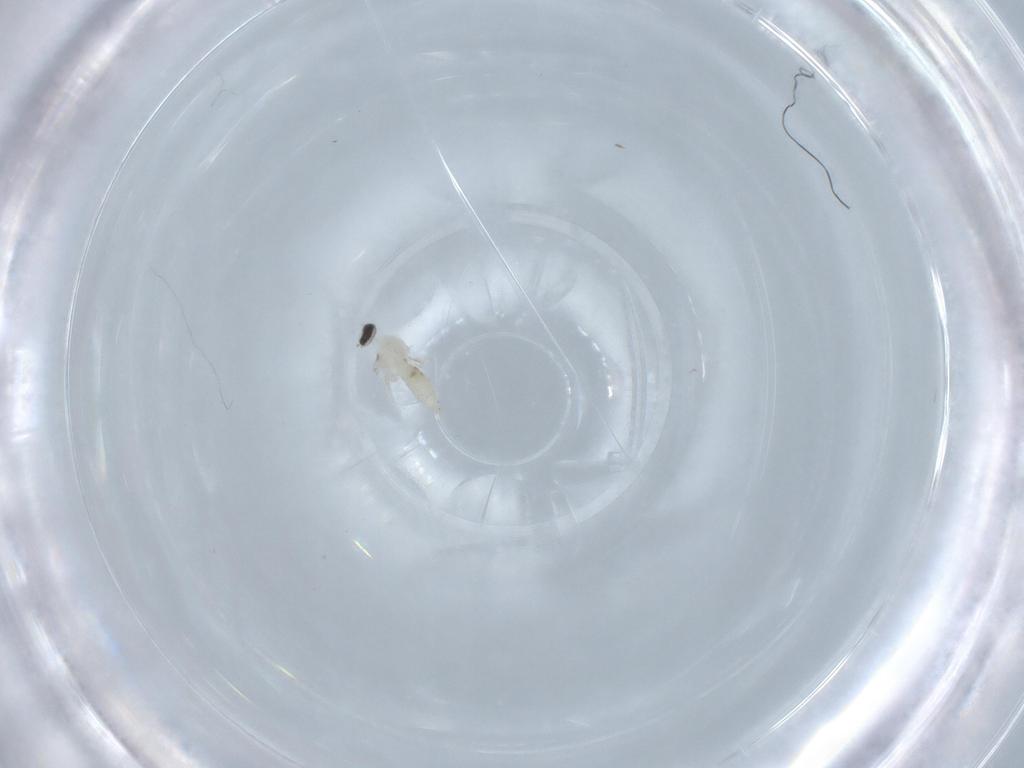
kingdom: Animalia
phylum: Arthropoda
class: Insecta
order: Diptera
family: Cecidomyiidae
